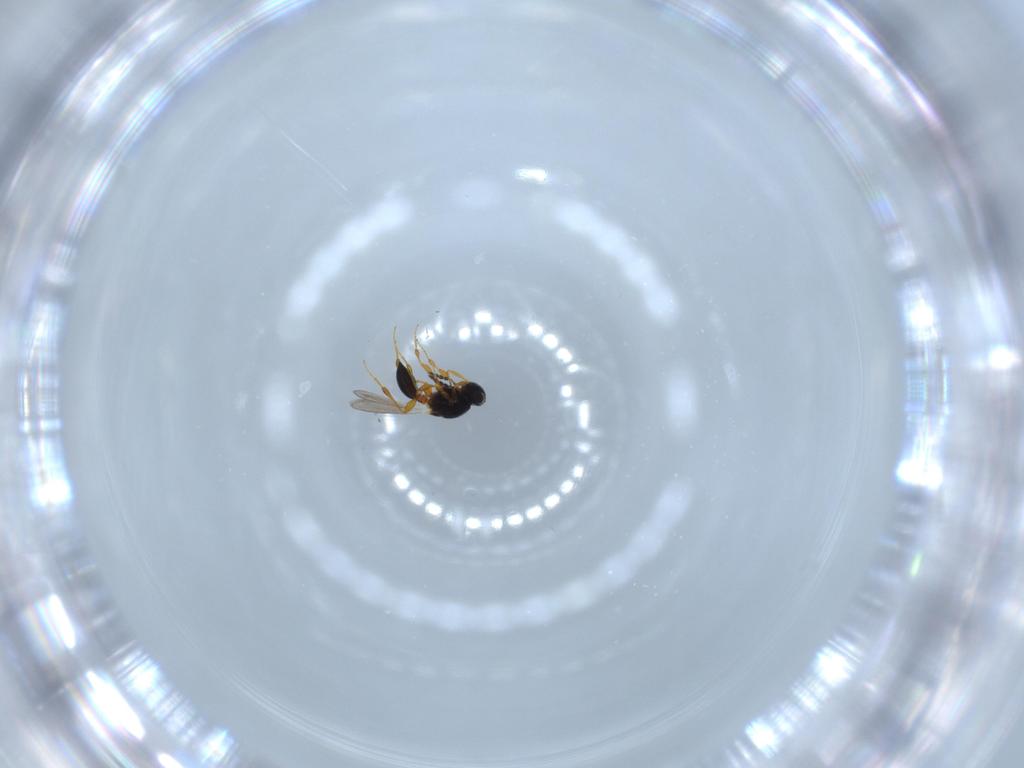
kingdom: Animalia
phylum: Arthropoda
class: Insecta
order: Hymenoptera
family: Platygastridae
